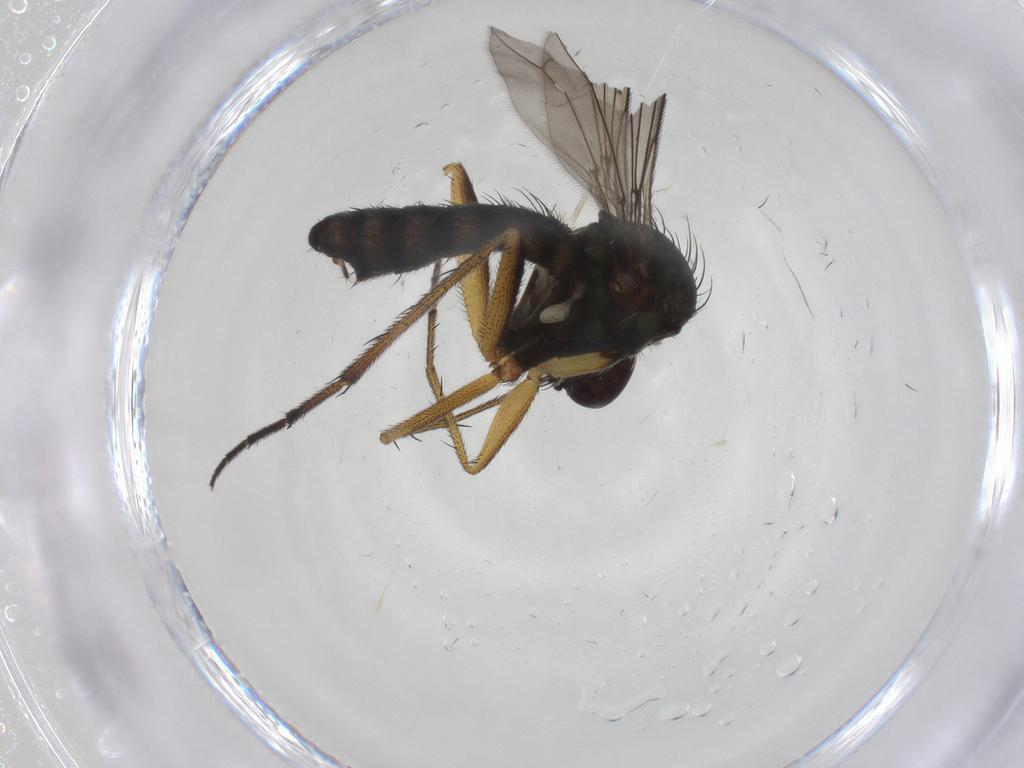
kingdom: Animalia
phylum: Arthropoda
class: Insecta
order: Diptera
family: Dolichopodidae
